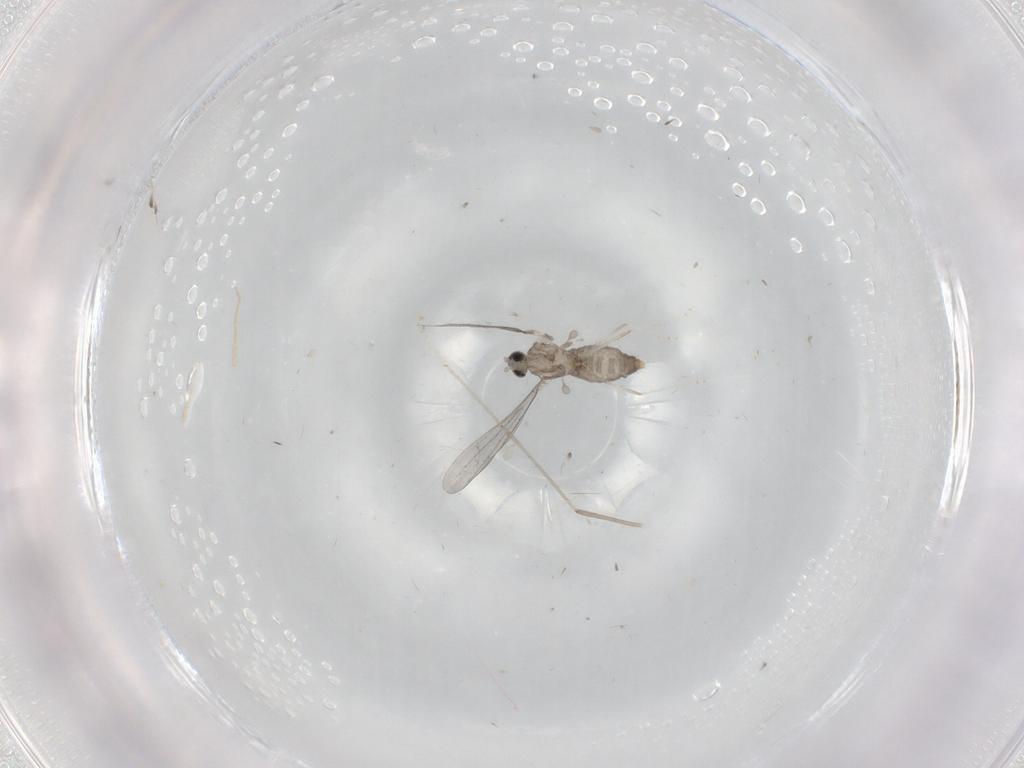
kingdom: Animalia
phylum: Arthropoda
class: Insecta
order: Diptera
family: Cecidomyiidae
